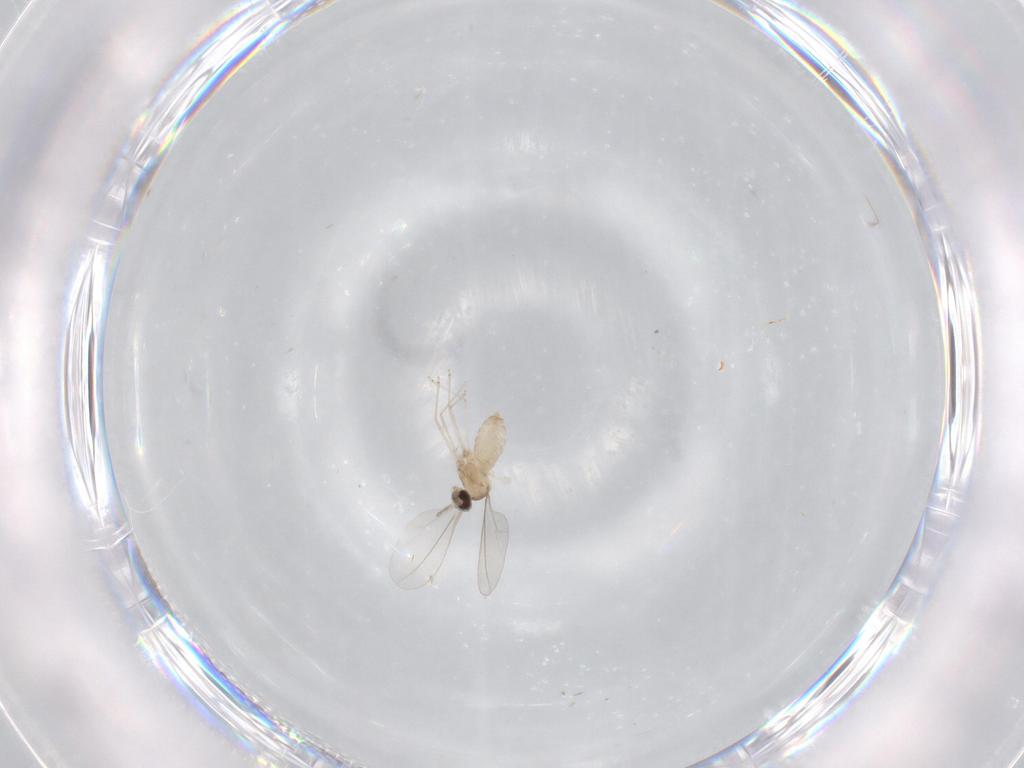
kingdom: Animalia
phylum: Arthropoda
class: Insecta
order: Diptera
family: Cecidomyiidae
